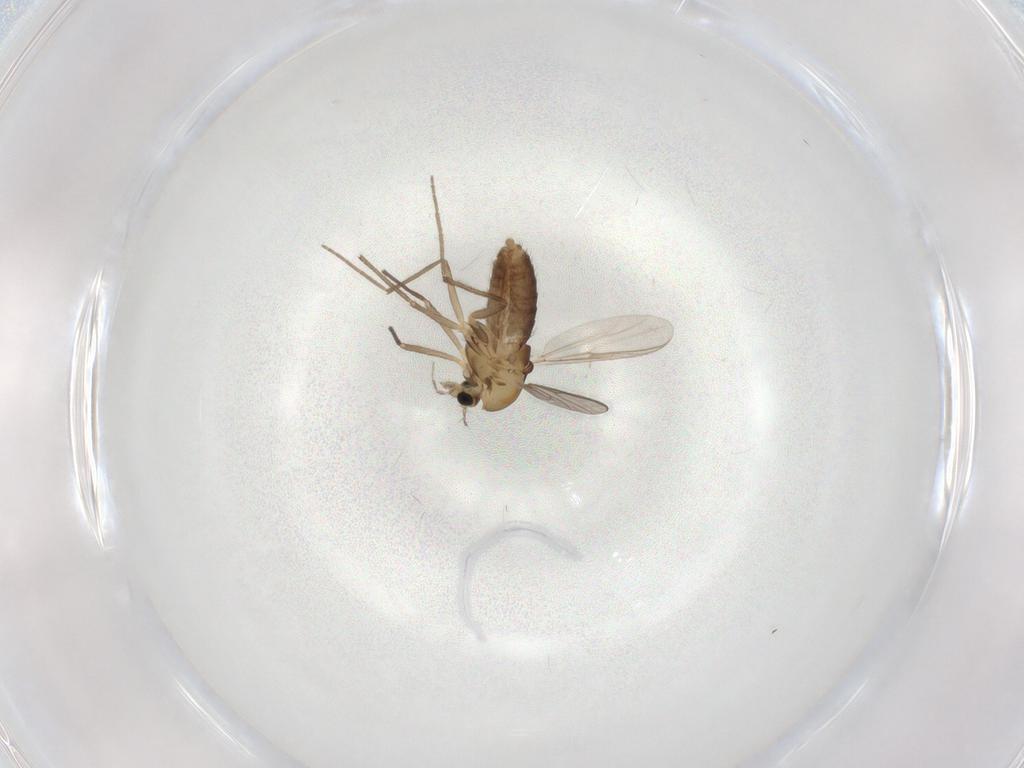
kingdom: Animalia
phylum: Arthropoda
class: Insecta
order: Diptera
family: Chironomidae
